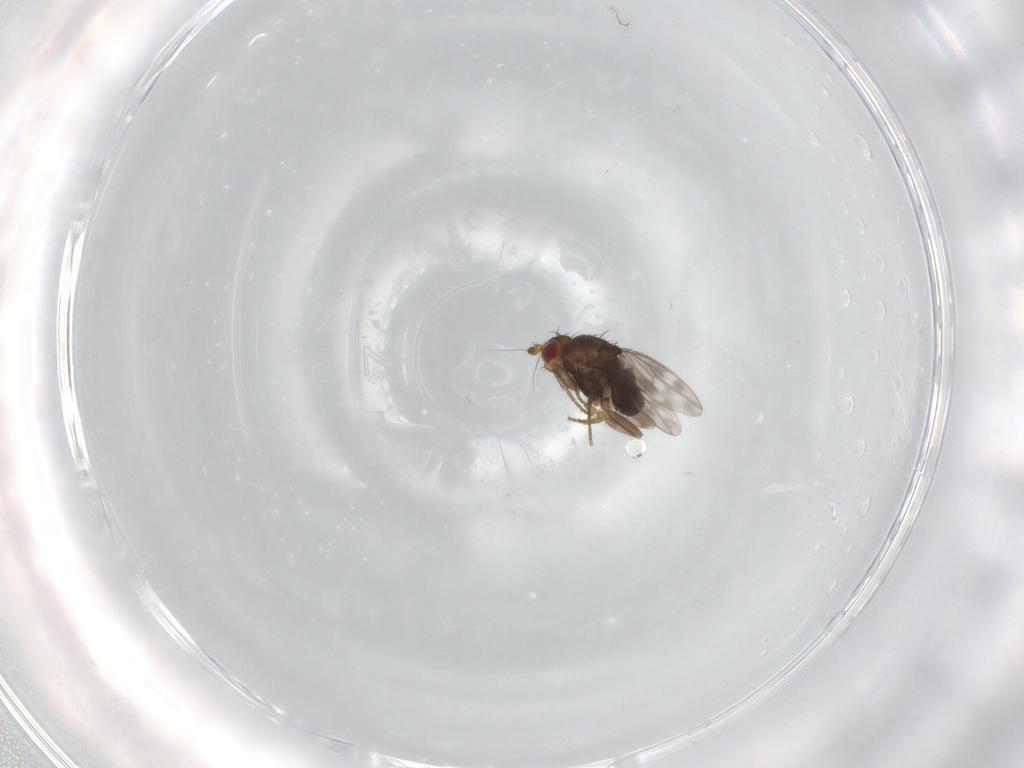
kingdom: Animalia
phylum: Arthropoda
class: Insecta
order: Diptera
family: Sphaeroceridae
